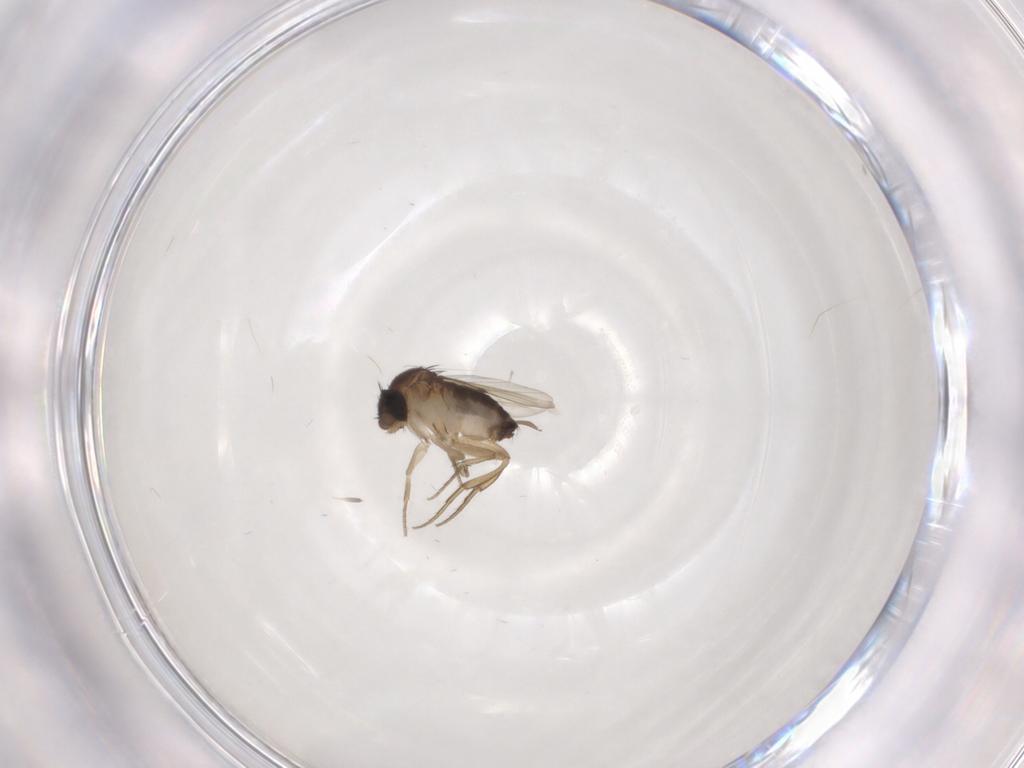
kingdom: Animalia
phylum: Arthropoda
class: Insecta
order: Diptera
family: Phoridae
